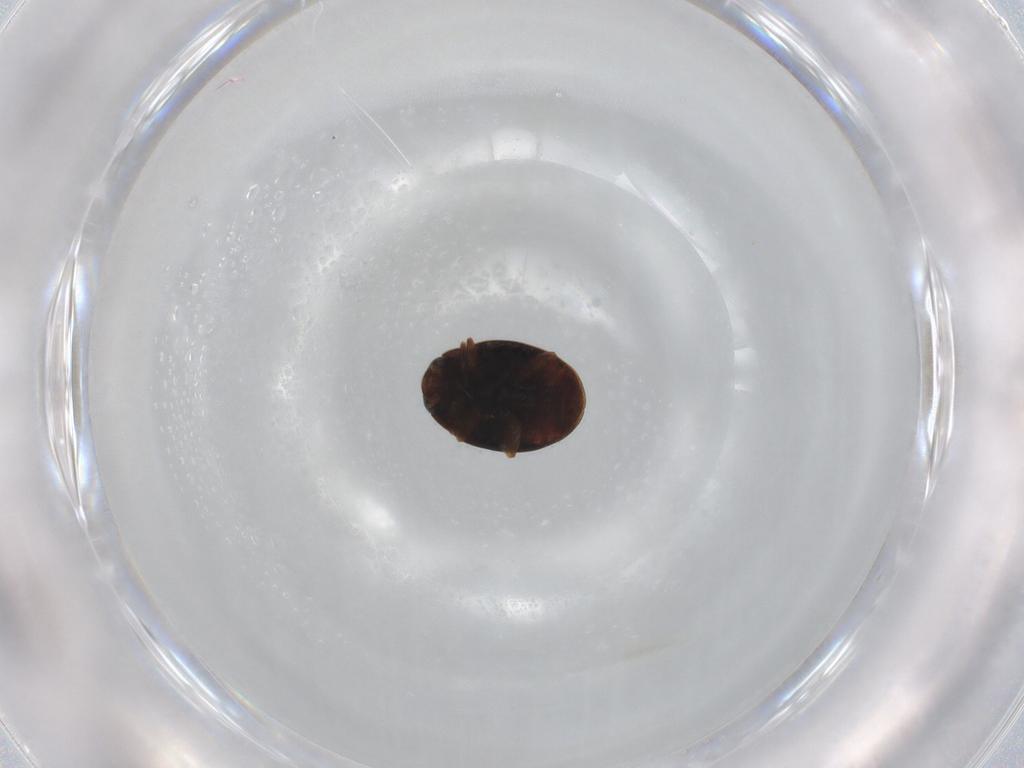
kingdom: Animalia
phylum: Arthropoda
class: Insecta
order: Coleoptera
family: Coccinellidae
